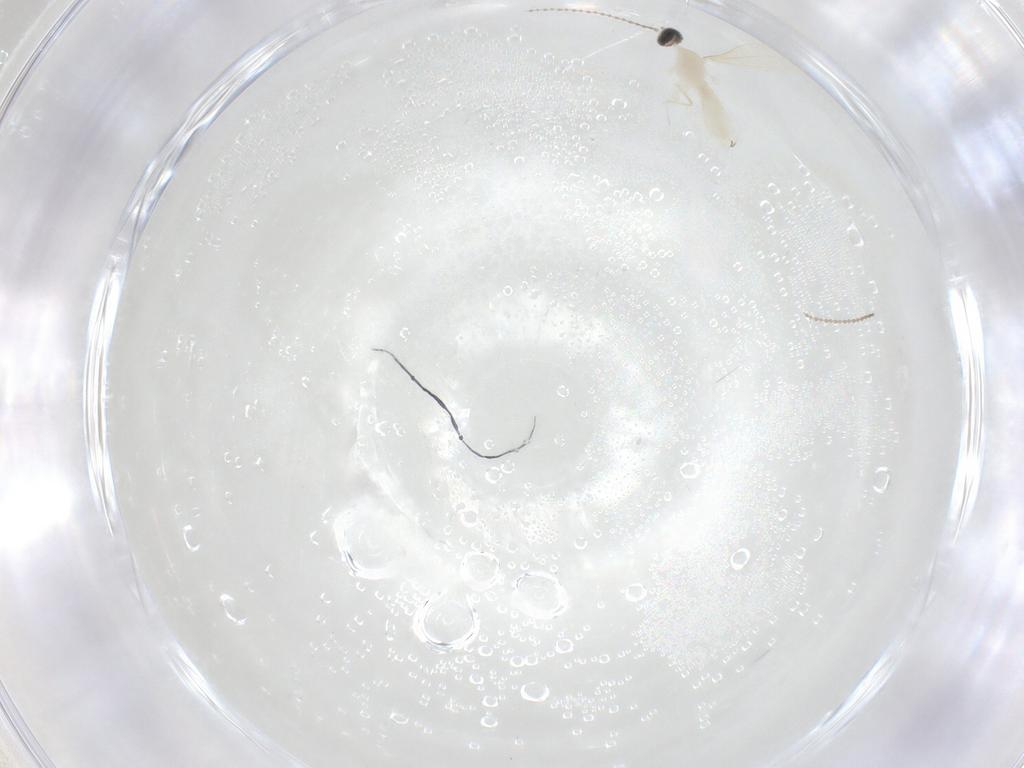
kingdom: Animalia
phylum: Arthropoda
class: Insecta
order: Diptera
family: Cecidomyiidae
